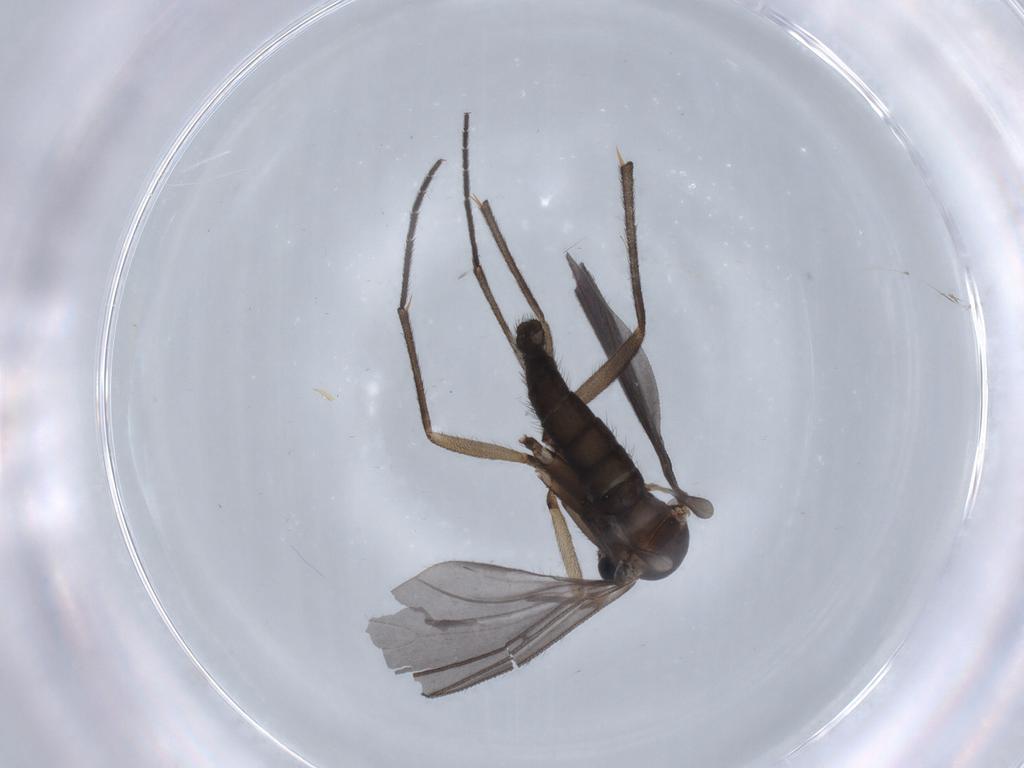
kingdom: Animalia
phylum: Arthropoda
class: Insecta
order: Diptera
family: Sciaridae
